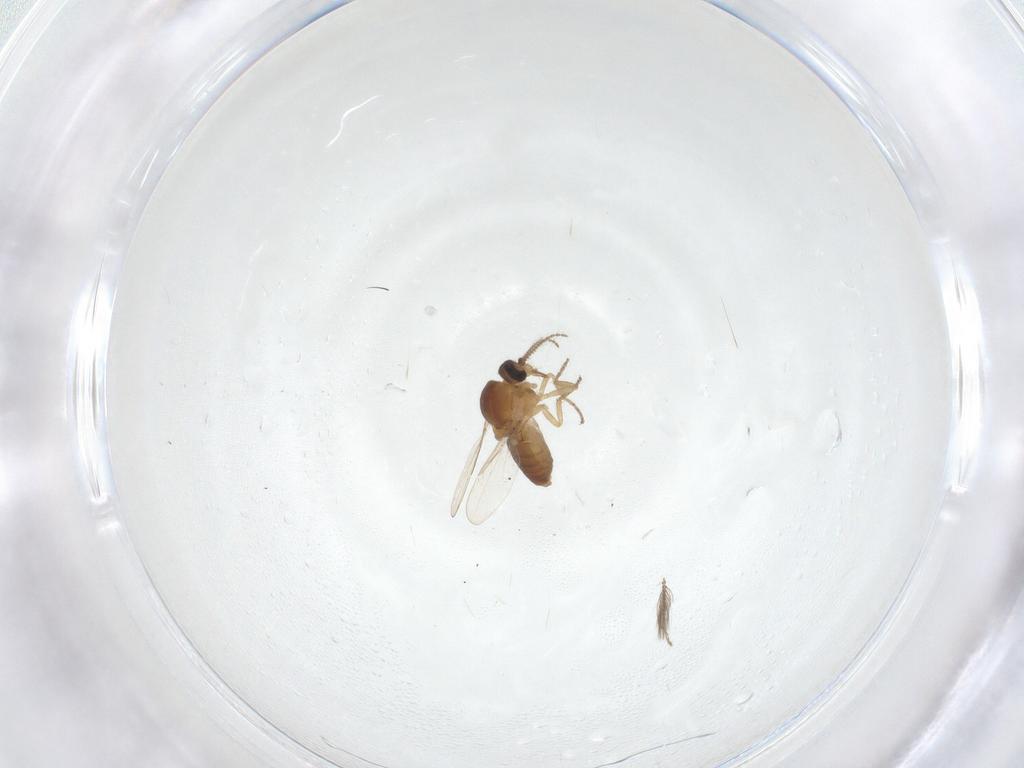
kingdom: Animalia
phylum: Arthropoda
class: Insecta
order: Diptera
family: Ceratopogonidae
